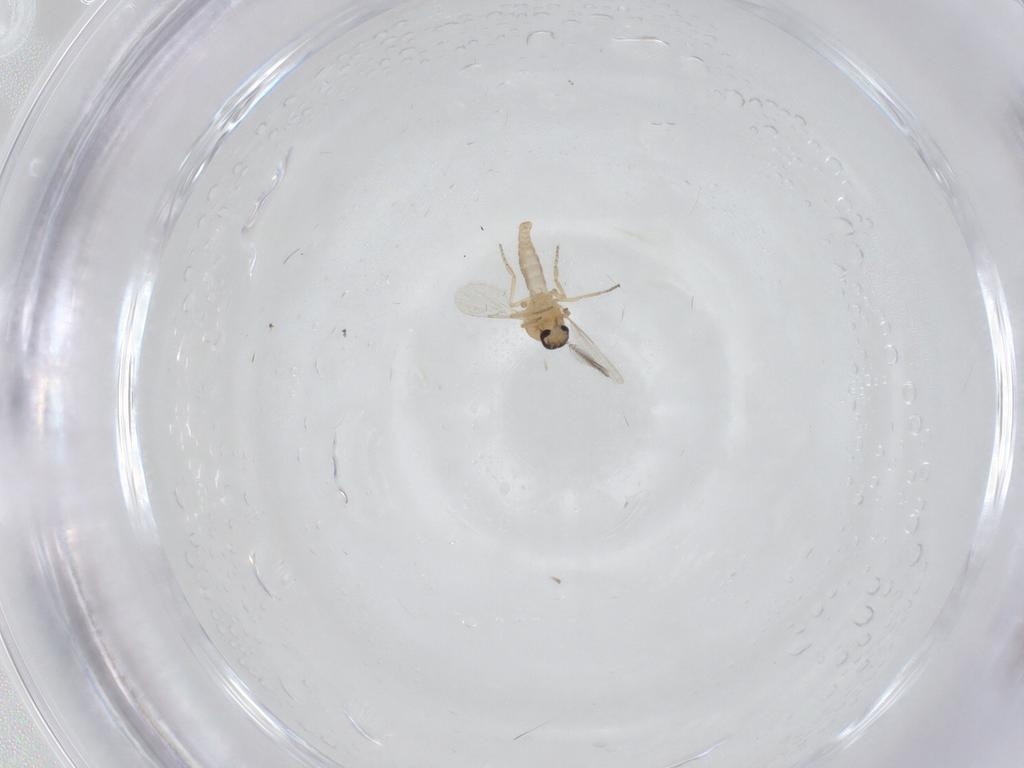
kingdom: Animalia
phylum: Arthropoda
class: Insecta
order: Diptera
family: Ceratopogonidae
